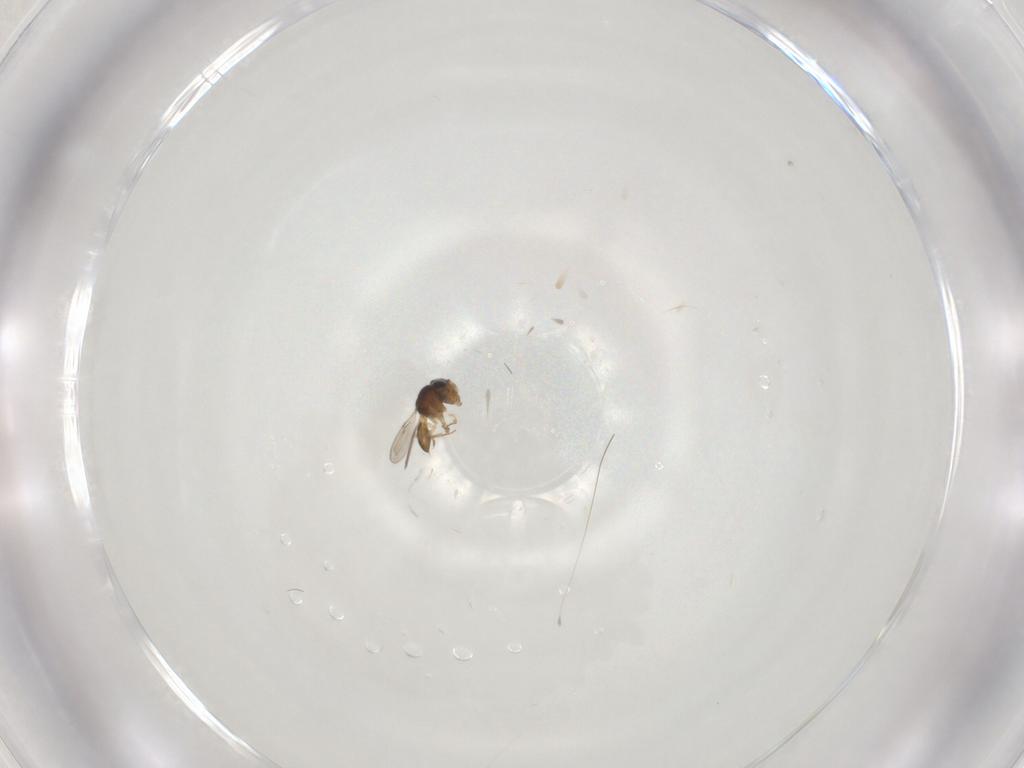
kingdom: Animalia
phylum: Arthropoda
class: Insecta
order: Hymenoptera
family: Scelionidae
